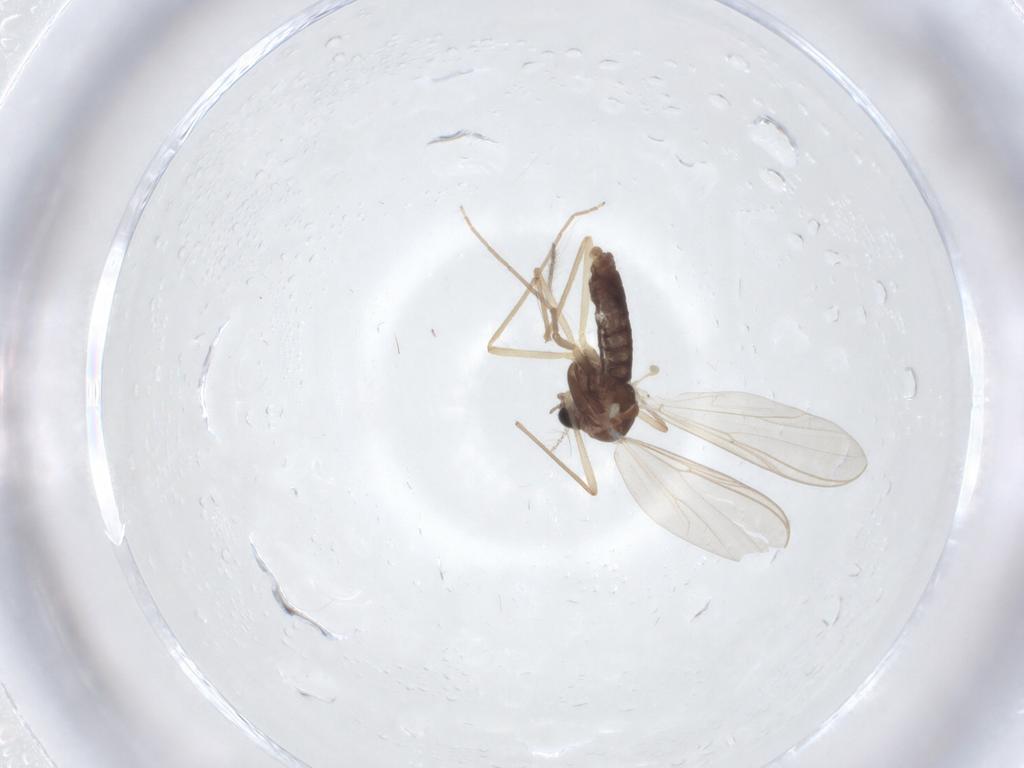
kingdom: Animalia
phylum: Arthropoda
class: Insecta
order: Diptera
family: Chironomidae
